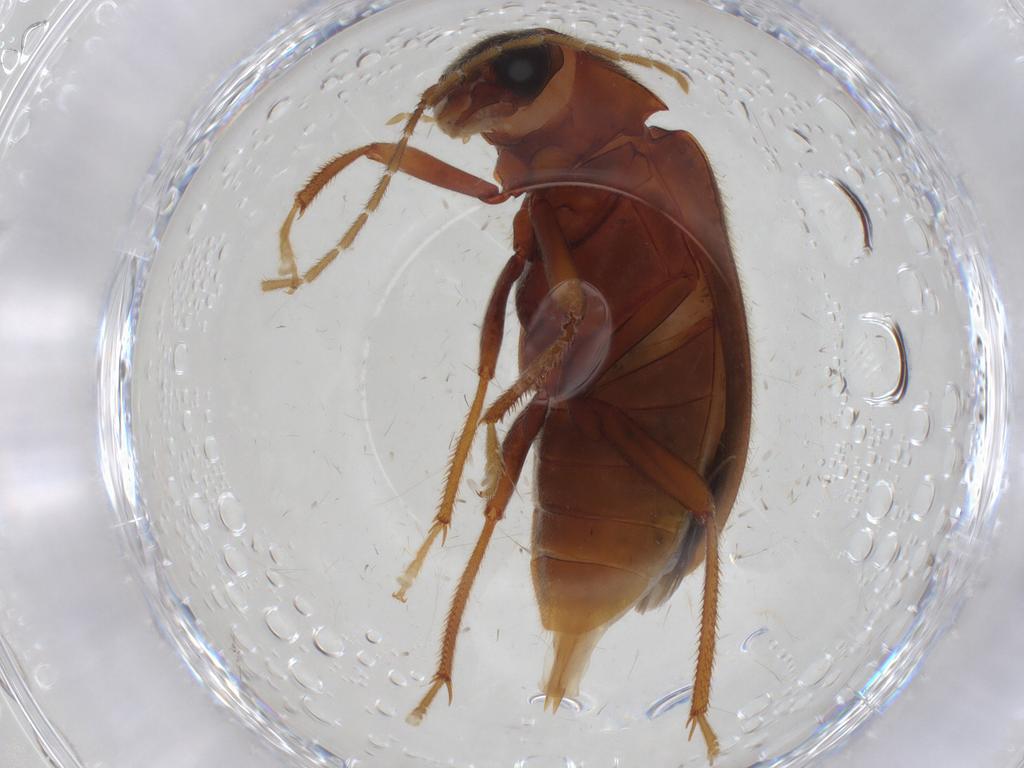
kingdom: Animalia
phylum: Arthropoda
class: Insecta
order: Coleoptera
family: Ptilodactylidae
